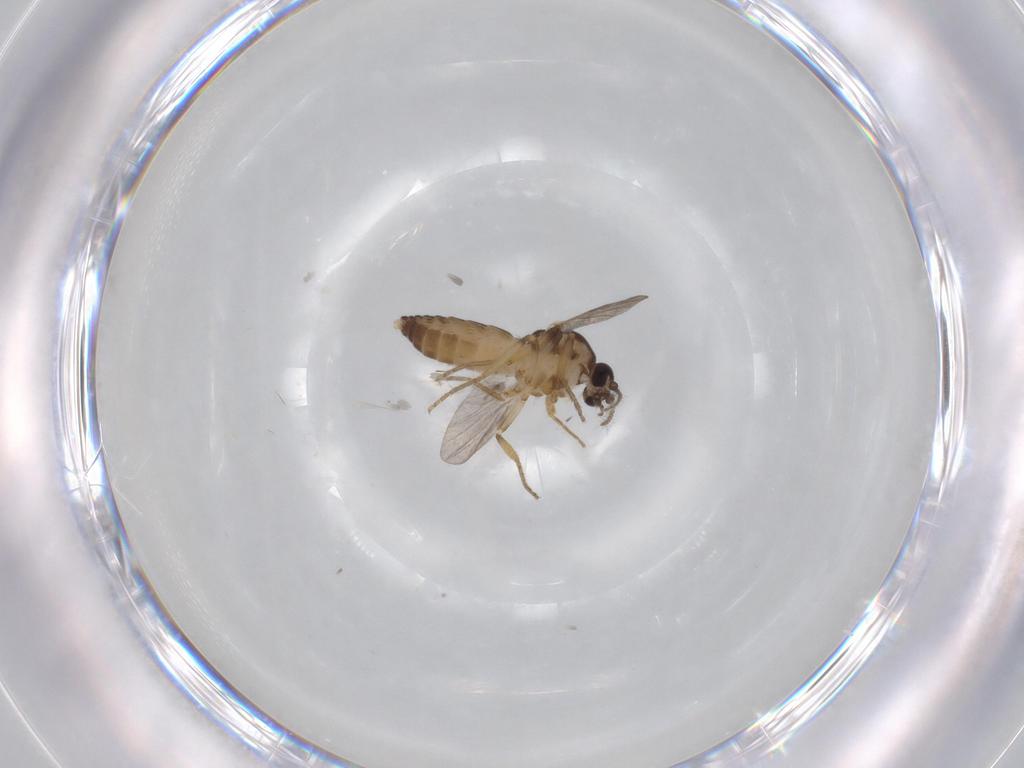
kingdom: Animalia
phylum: Arthropoda
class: Insecta
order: Diptera
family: Ceratopogonidae
